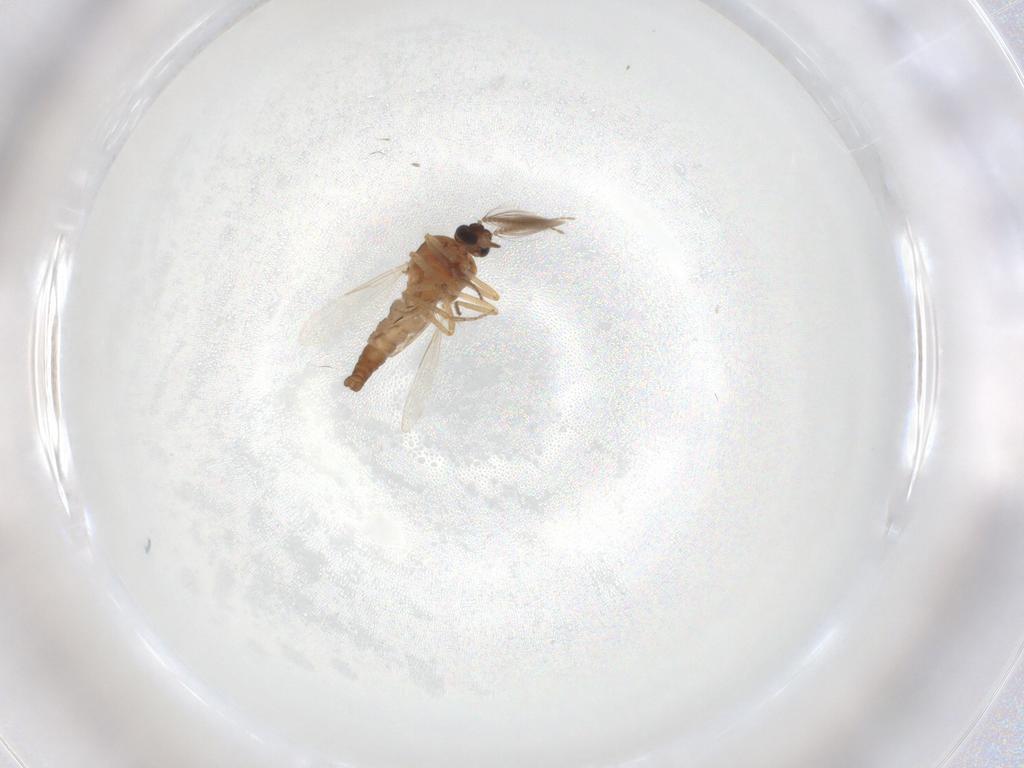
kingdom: Animalia
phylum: Arthropoda
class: Insecta
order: Diptera
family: Ceratopogonidae
